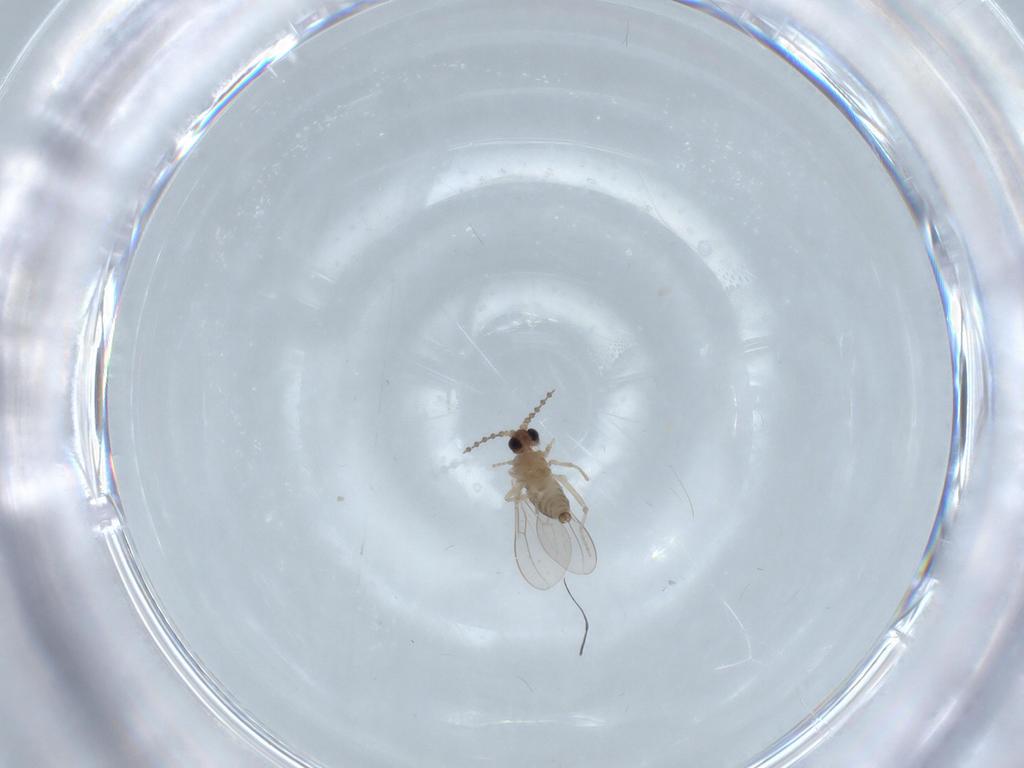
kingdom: Animalia
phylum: Arthropoda
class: Insecta
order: Diptera
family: Cecidomyiidae
